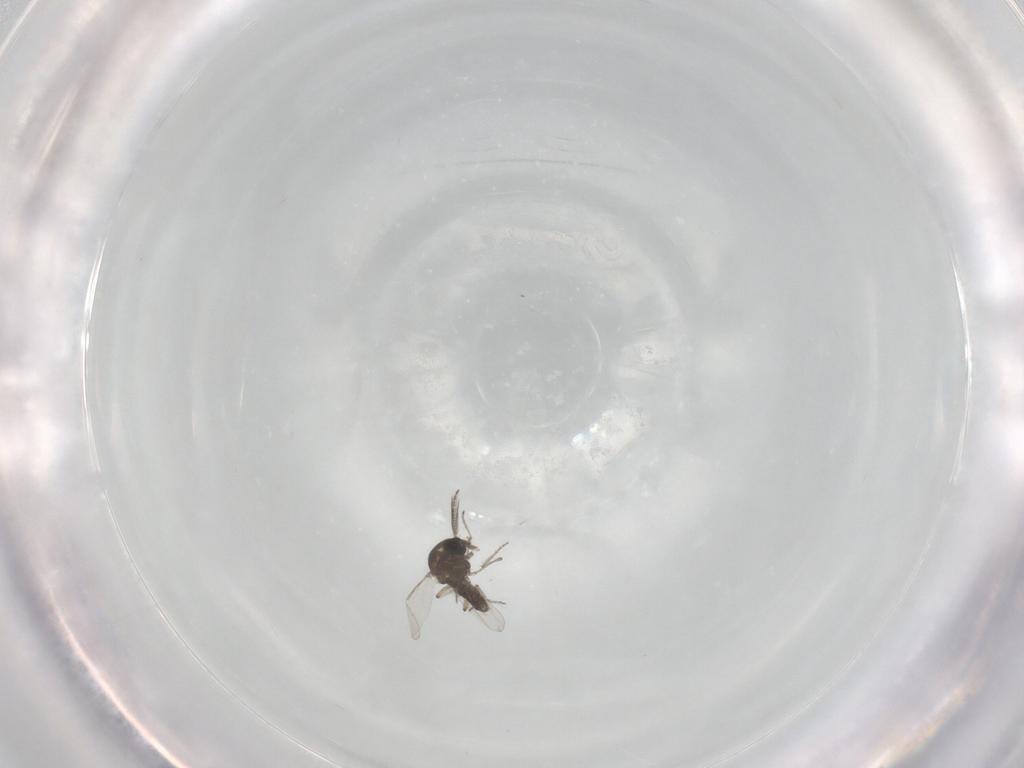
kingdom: Animalia
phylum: Arthropoda
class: Insecta
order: Diptera
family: Ceratopogonidae
